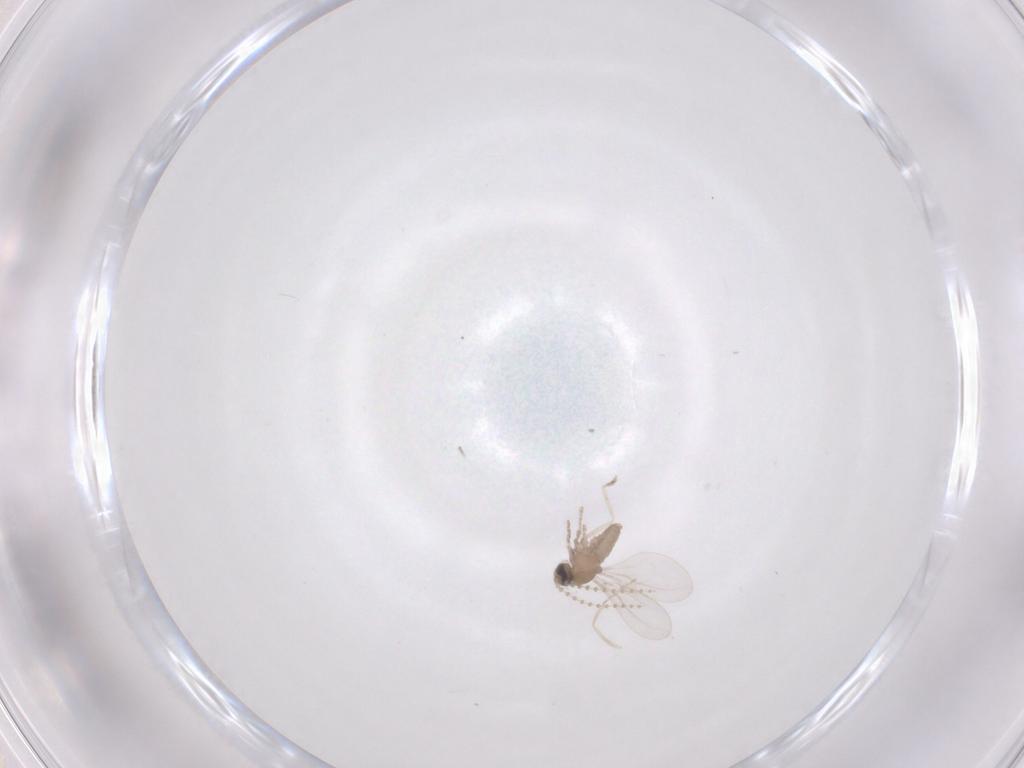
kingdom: Animalia
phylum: Arthropoda
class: Insecta
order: Diptera
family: Cecidomyiidae
